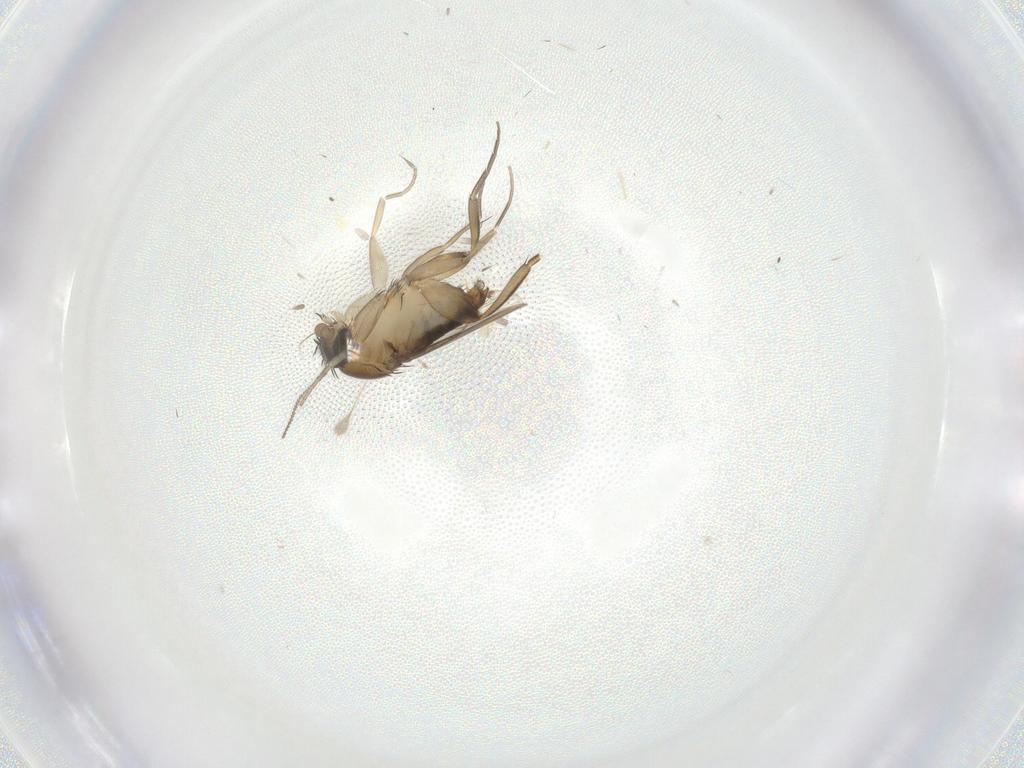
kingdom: Animalia
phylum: Arthropoda
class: Insecta
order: Diptera
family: Phoridae
